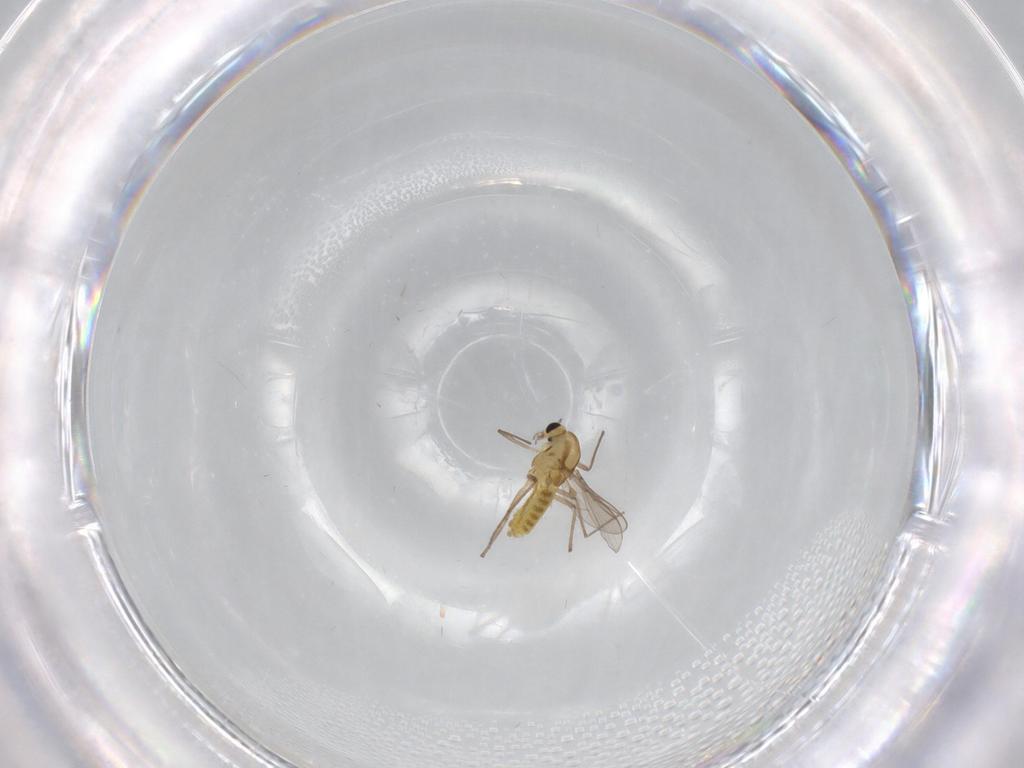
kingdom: Animalia
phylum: Arthropoda
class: Insecta
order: Diptera
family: Chironomidae
